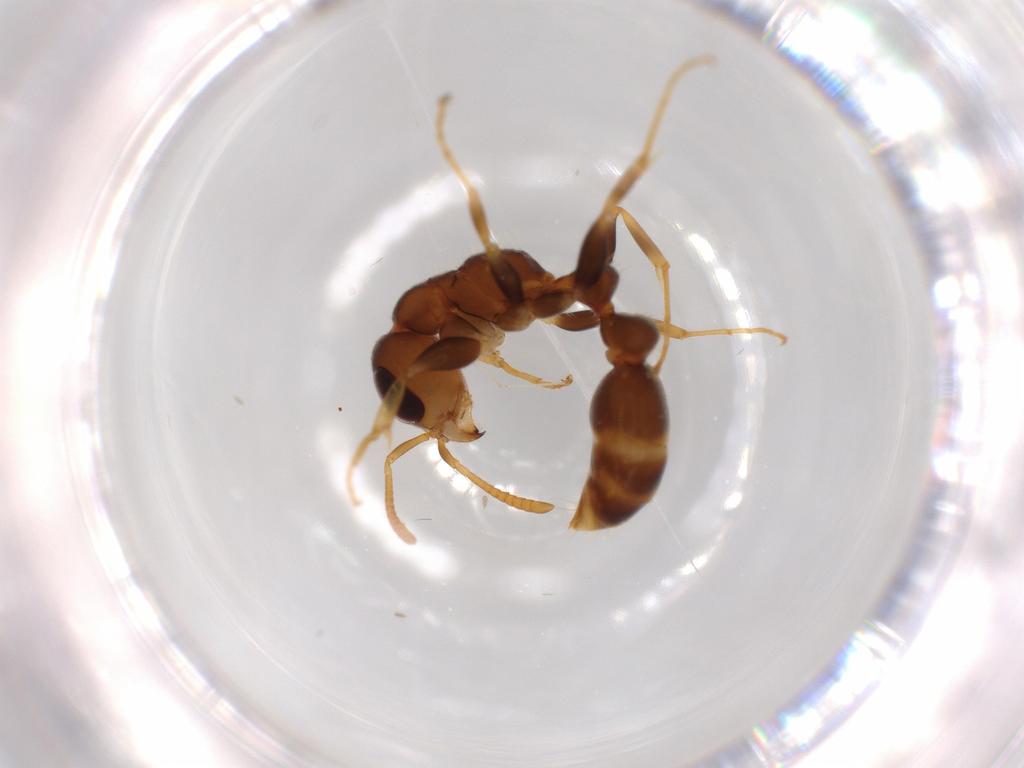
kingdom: Animalia
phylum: Arthropoda
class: Insecta
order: Hymenoptera
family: Formicidae
